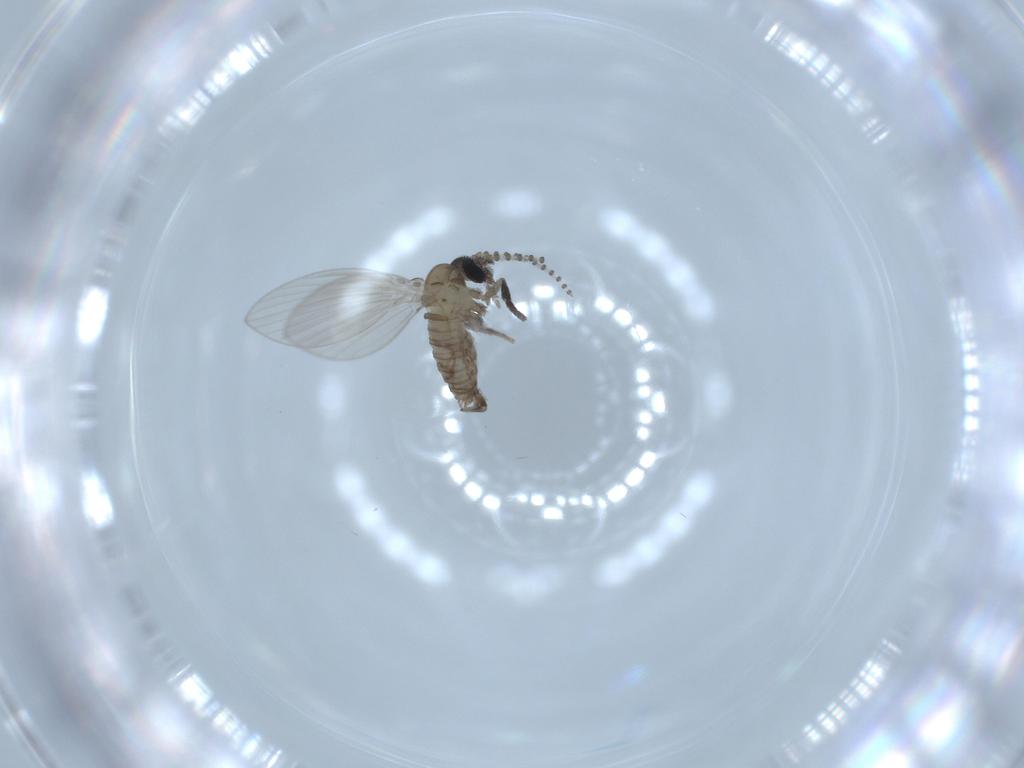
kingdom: Animalia
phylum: Arthropoda
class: Insecta
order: Diptera
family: Psychodidae
